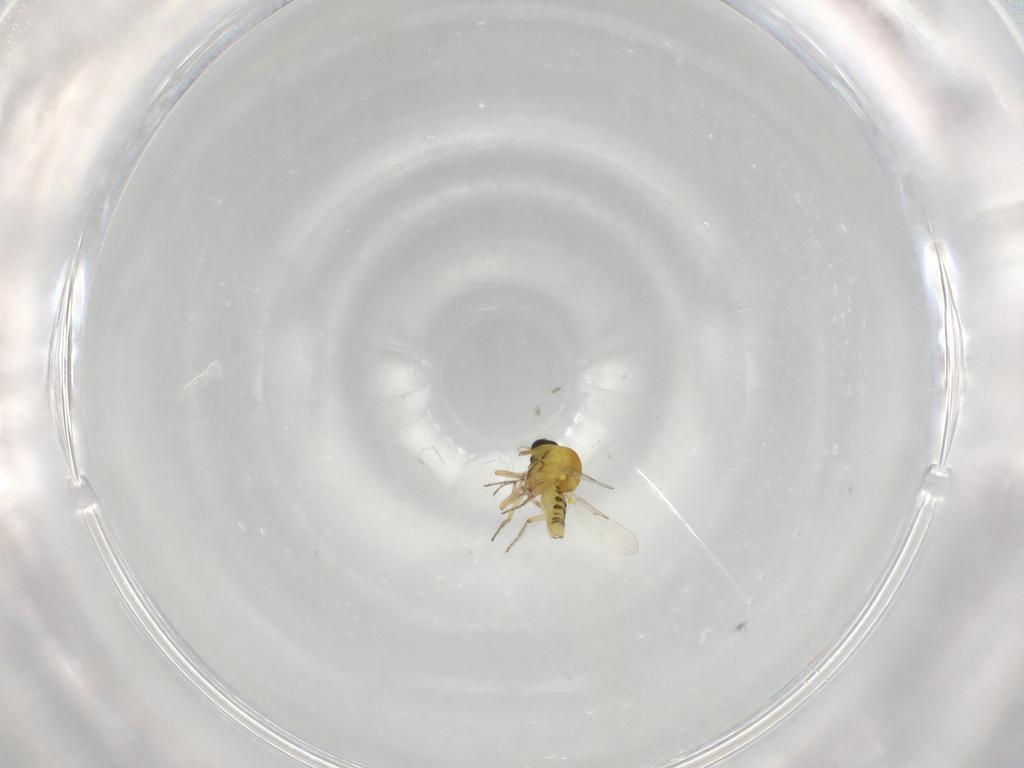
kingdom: Animalia
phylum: Arthropoda
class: Insecta
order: Diptera
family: Ceratopogonidae
